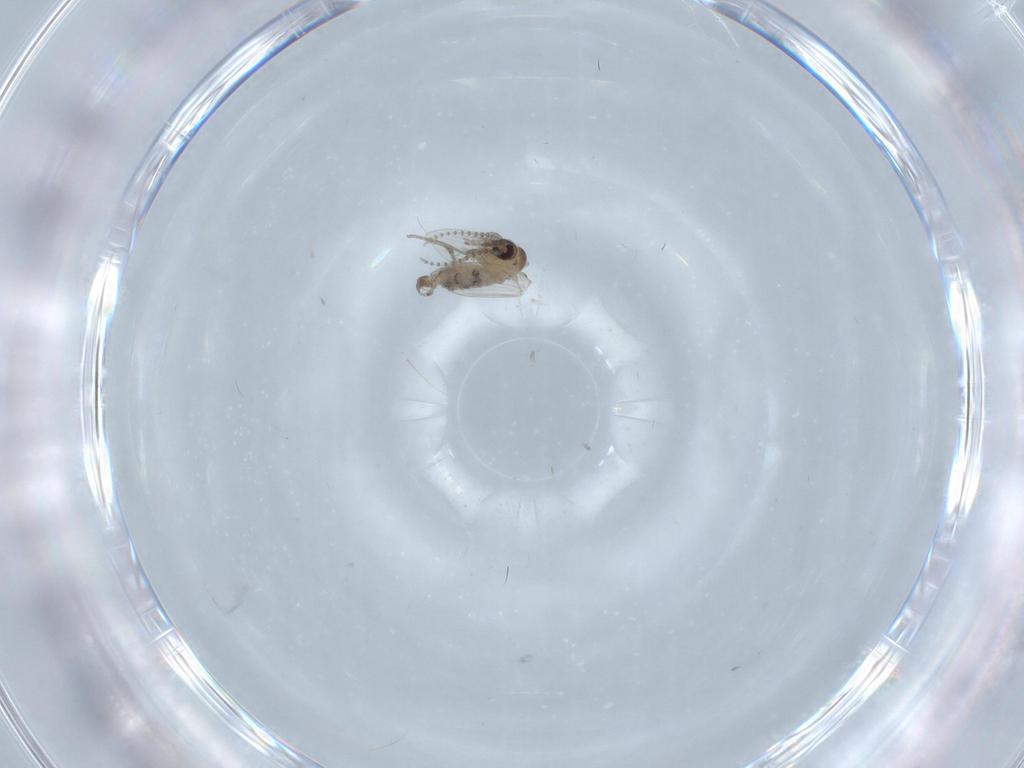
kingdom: Animalia
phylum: Arthropoda
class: Insecta
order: Diptera
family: Psychodidae
